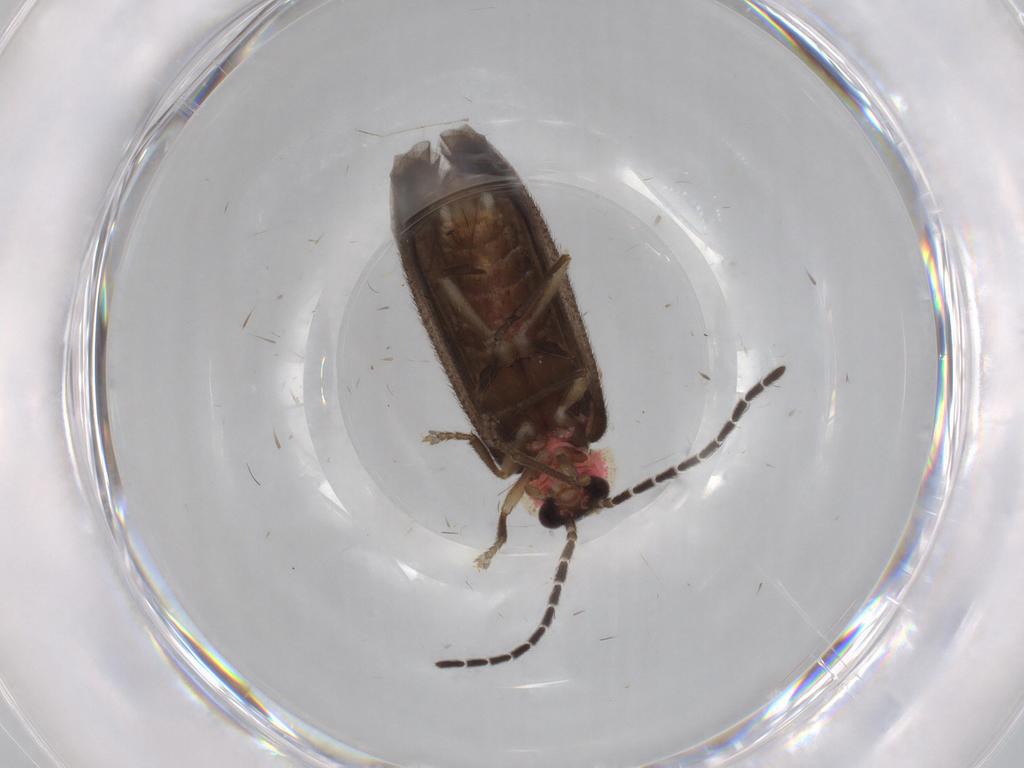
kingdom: Animalia
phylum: Arthropoda
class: Insecta
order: Coleoptera
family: Lampyridae
